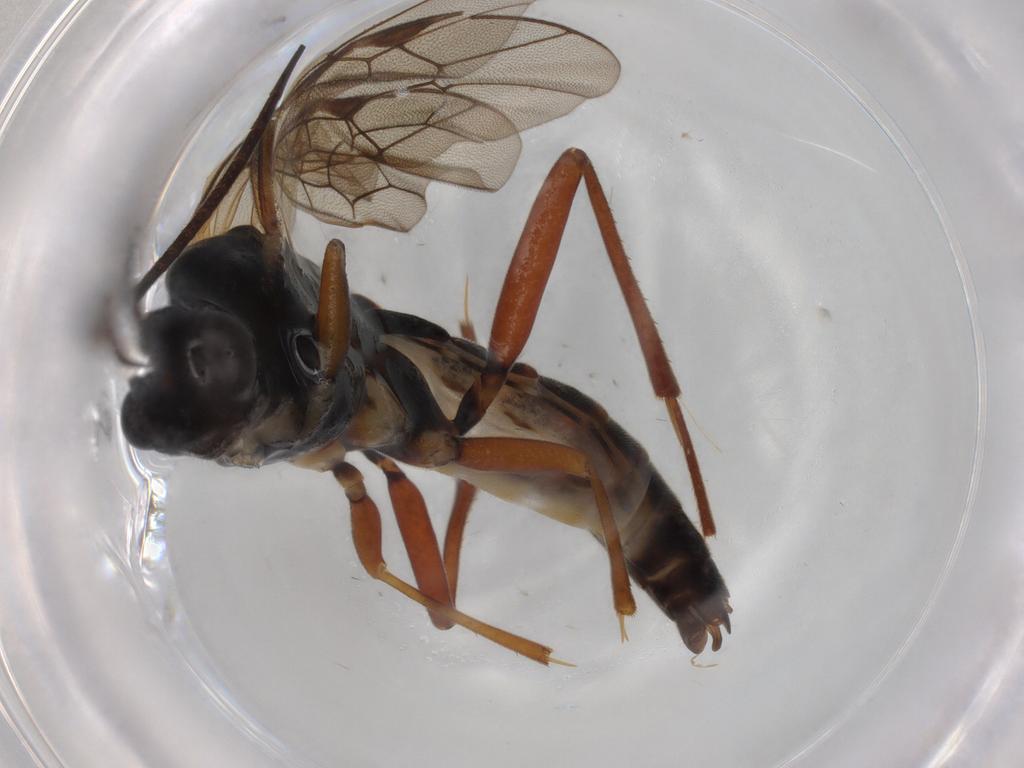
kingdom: Animalia
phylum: Arthropoda
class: Insecta
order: Hymenoptera
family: Ichneumonidae
